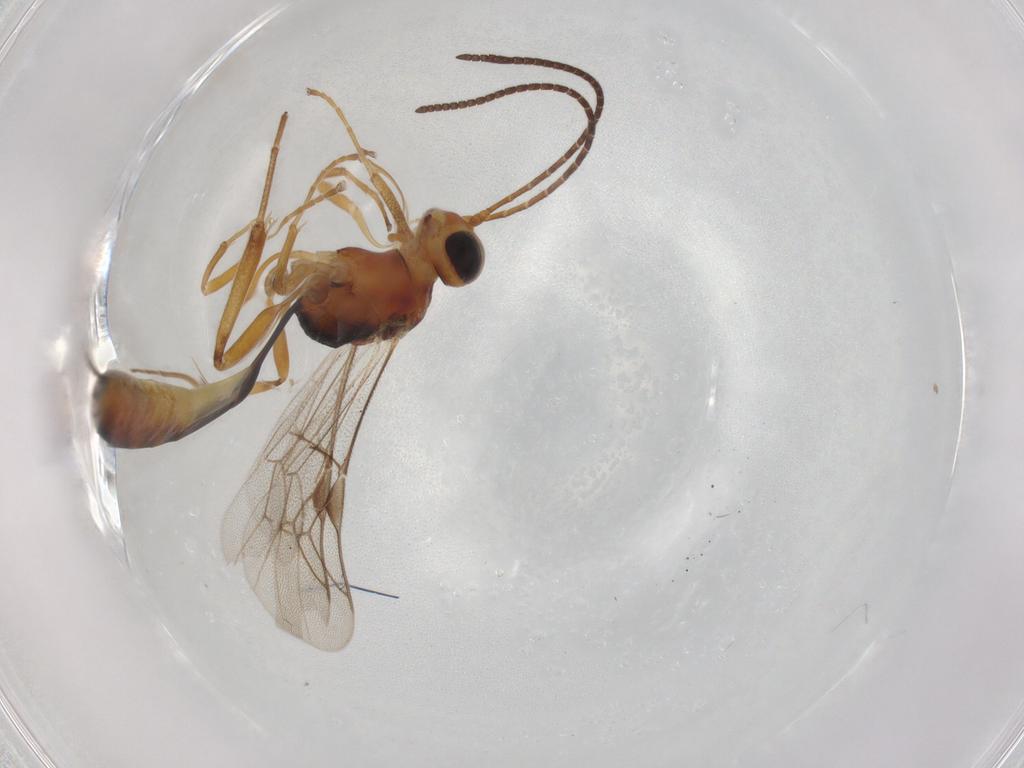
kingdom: Animalia
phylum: Arthropoda
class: Insecta
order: Hymenoptera
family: Ichneumonidae
